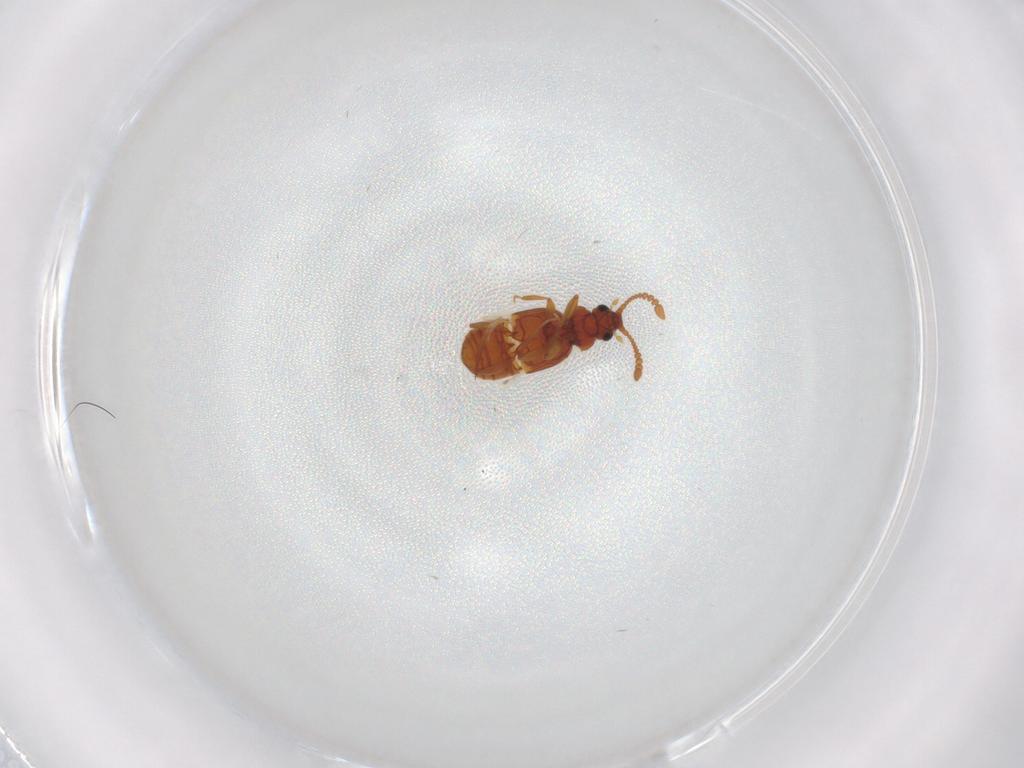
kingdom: Animalia
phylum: Arthropoda
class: Insecta
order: Coleoptera
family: Staphylinidae
